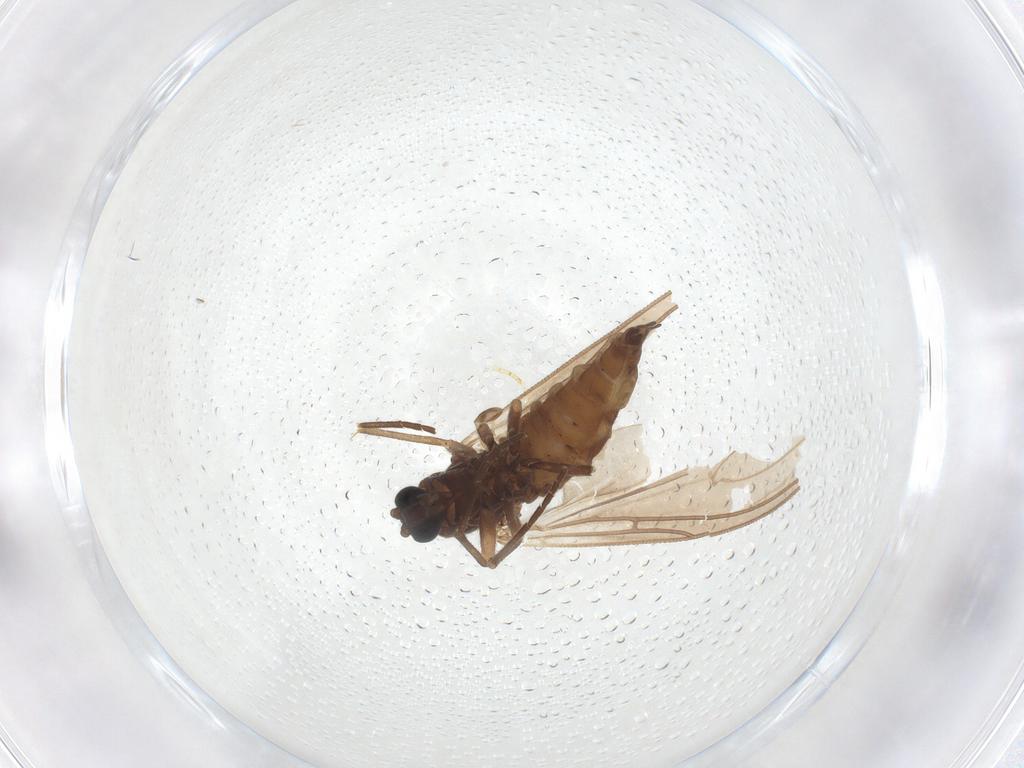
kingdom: Animalia
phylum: Arthropoda
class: Insecta
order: Diptera
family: Sciaridae
